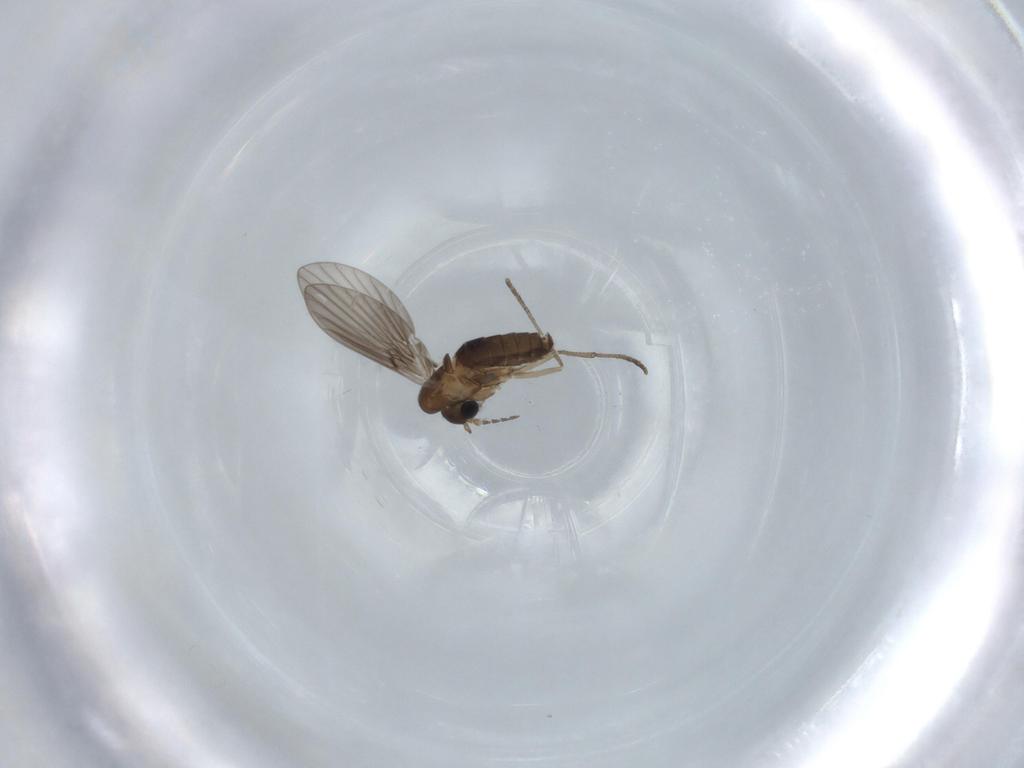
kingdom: Animalia
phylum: Arthropoda
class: Insecta
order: Diptera
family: Psychodidae
